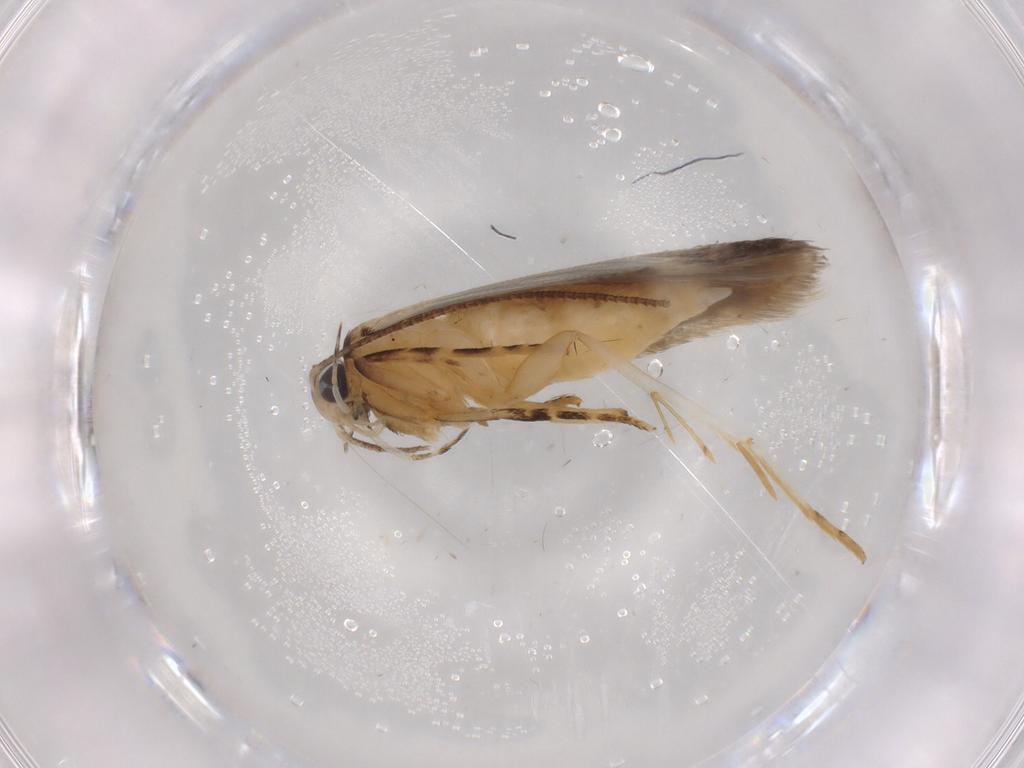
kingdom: Animalia
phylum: Arthropoda
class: Insecta
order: Lepidoptera
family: Autostichidae
